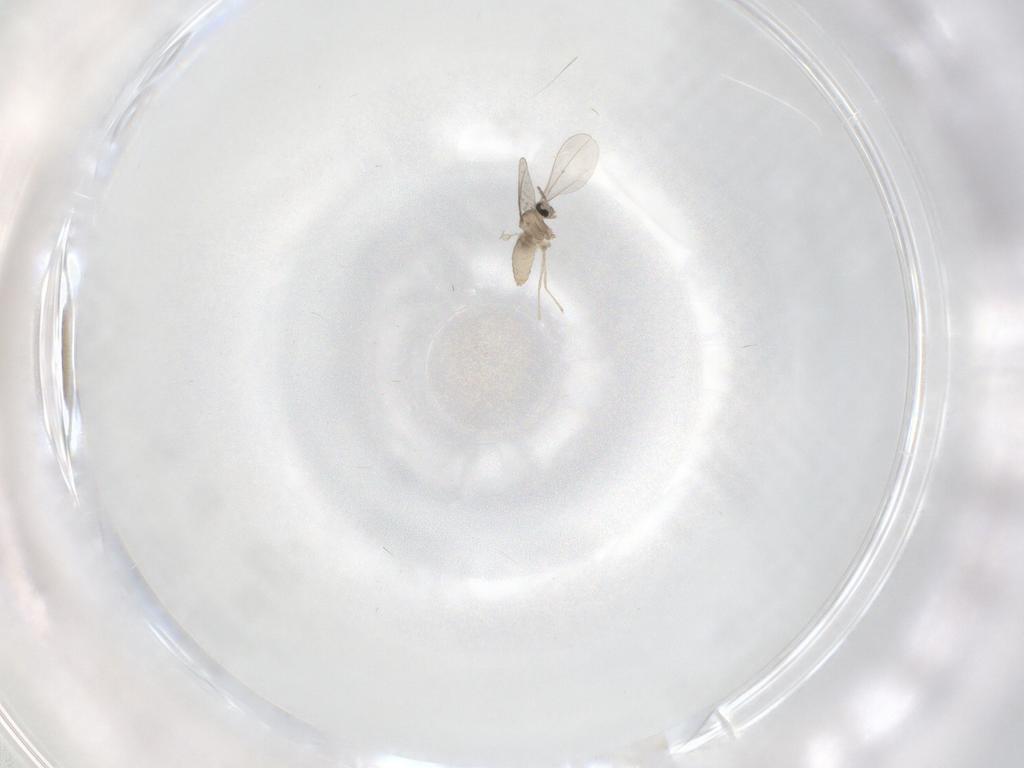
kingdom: Animalia
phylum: Arthropoda
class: Insecta
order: Diptera
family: Cecidomyiidae
